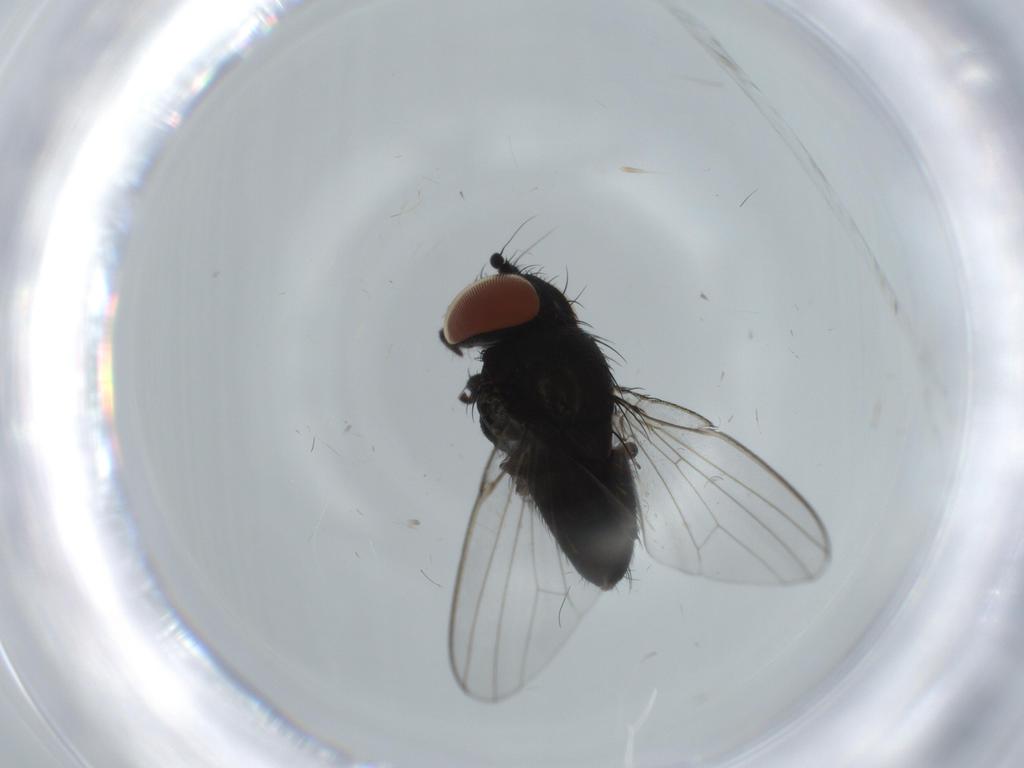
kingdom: Animalia
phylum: Arthropoda
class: Insecta
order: Diptera
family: Milichiidae
